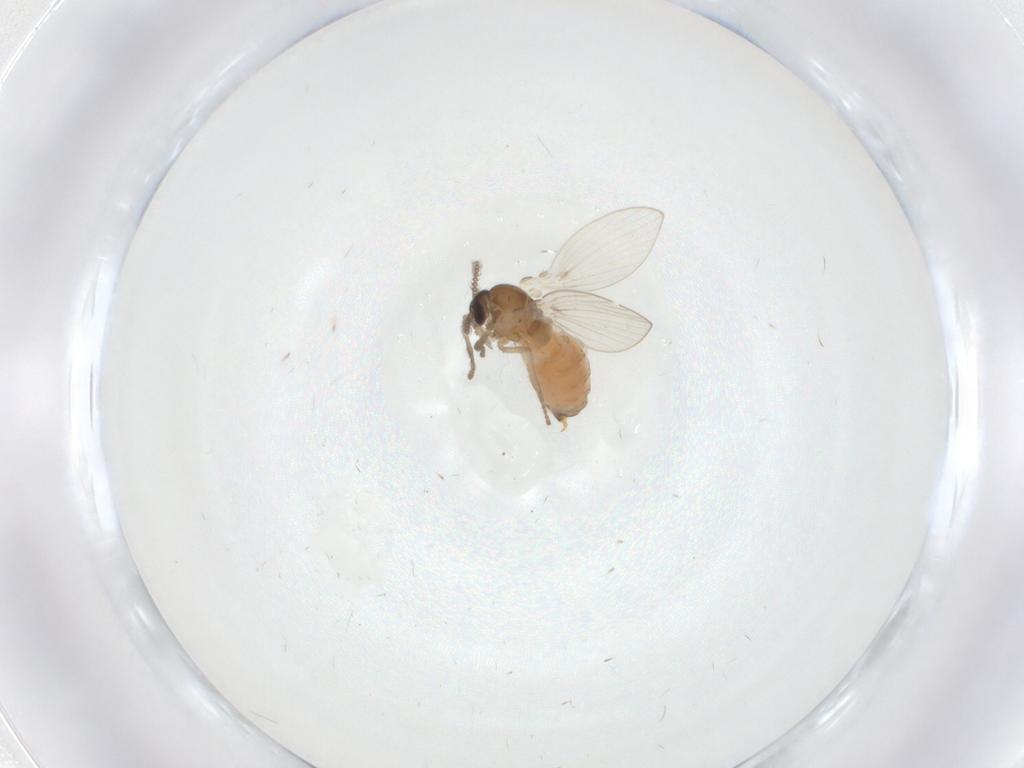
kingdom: Animalia
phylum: Arthropoda
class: Insecta
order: Diptera
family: Psychodidae
